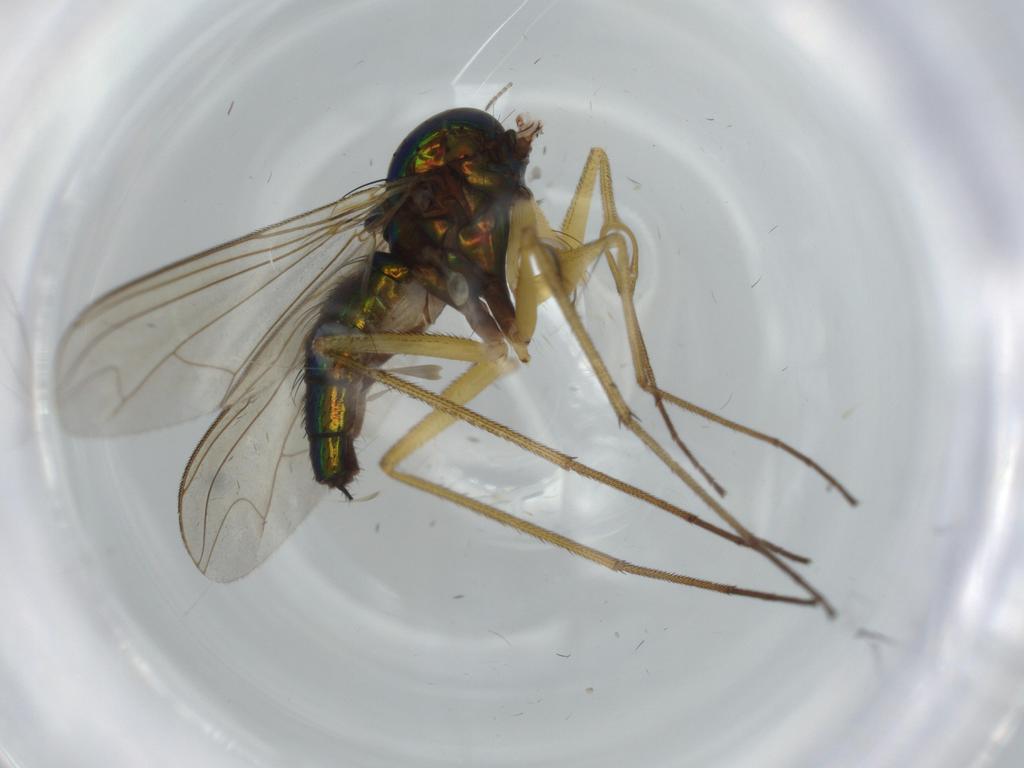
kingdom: Animalia
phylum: Arthropoda
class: Insecta
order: Diptera
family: Dolichopodidae
